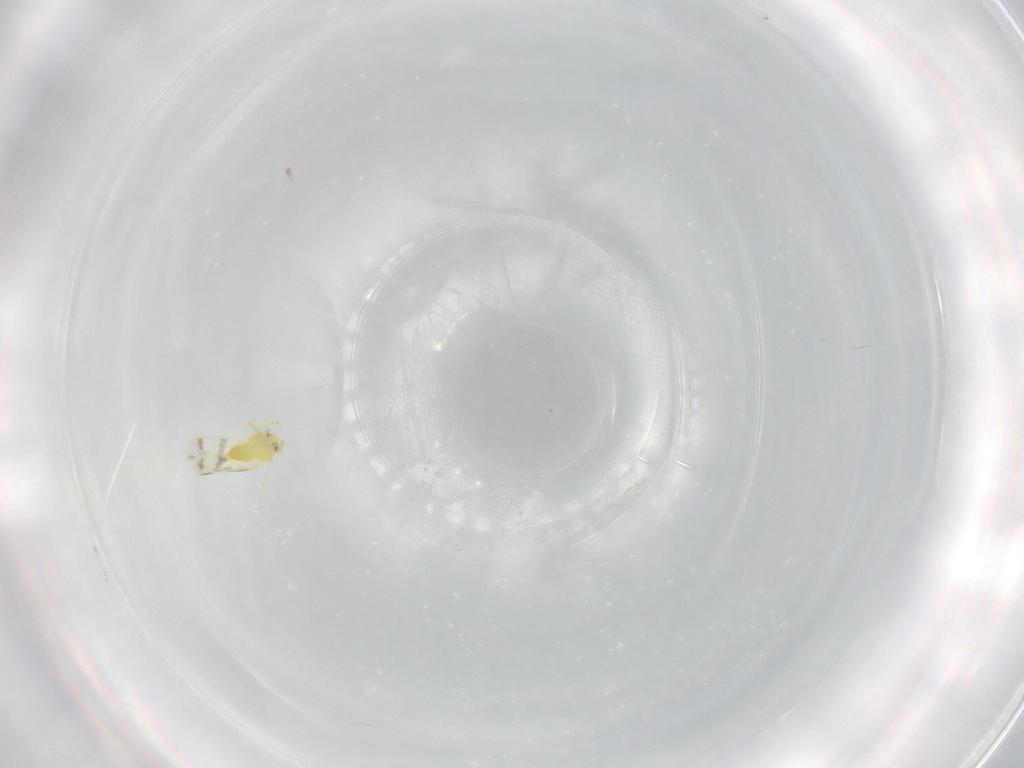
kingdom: Animalia
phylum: Arthropoda
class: Insecta
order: Hemiptera
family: Aleyrodidae
